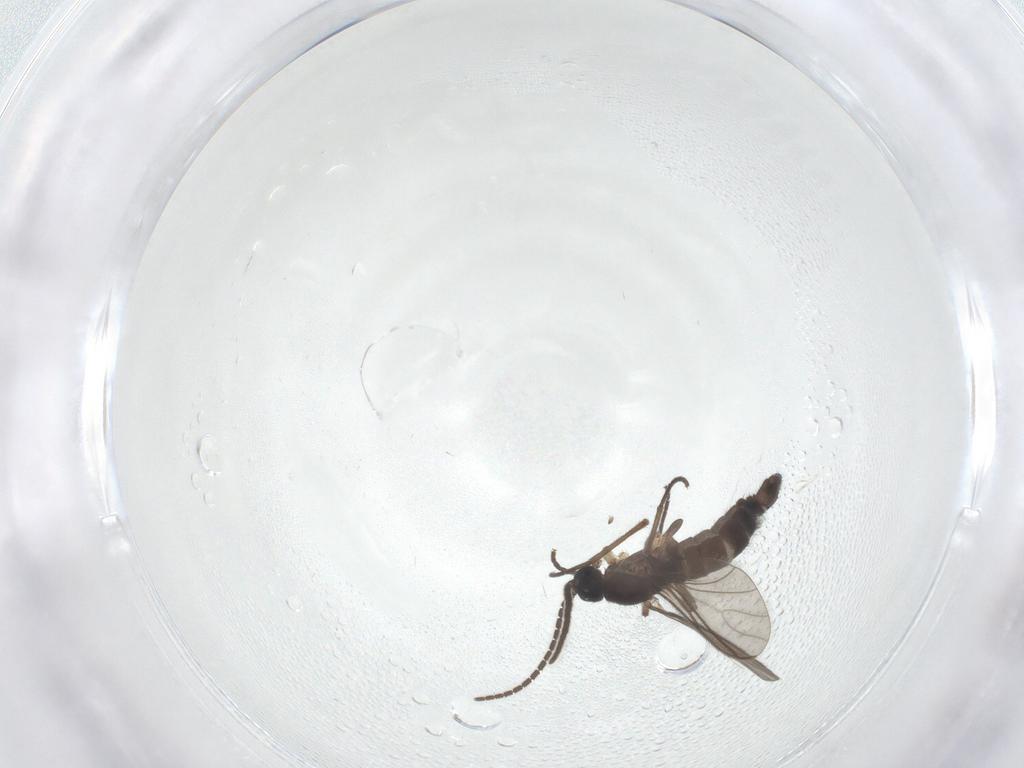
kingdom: Animalia
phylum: Arthropoda
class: Insecta
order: Diptera
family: Sciaridae
